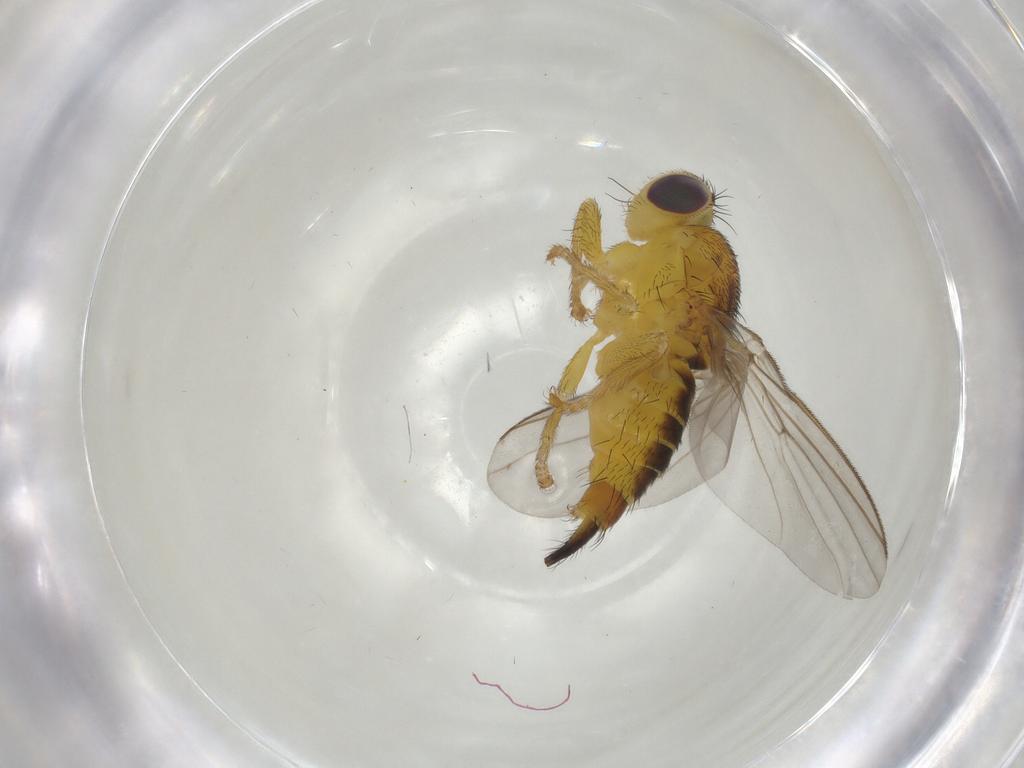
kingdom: Animalia
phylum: Arthropoda
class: Insecta
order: Diptera
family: Fergusoninidae
